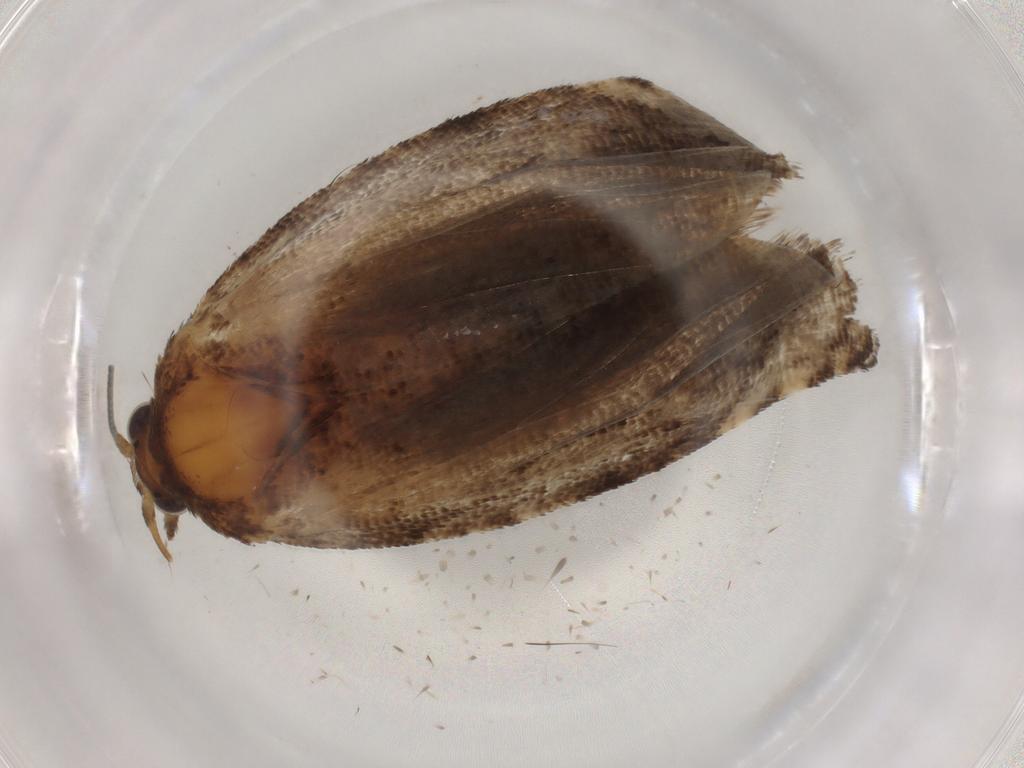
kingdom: Animalia
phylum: Arthropoda
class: Insecta
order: Lepidoptera
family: Tortricidae
